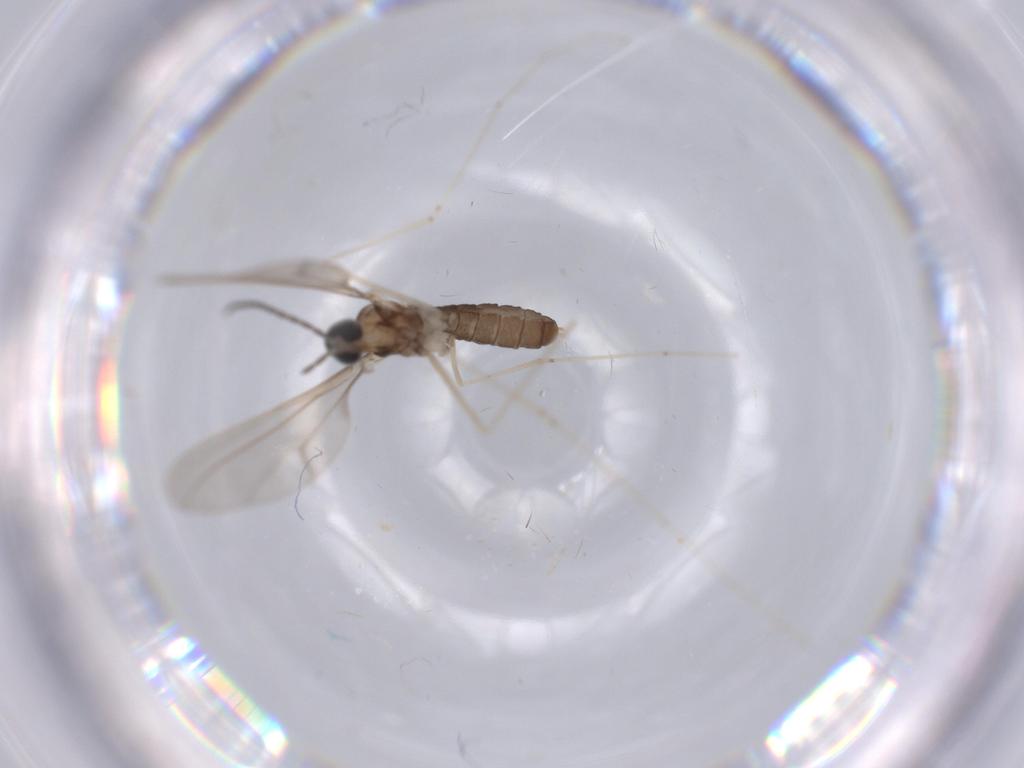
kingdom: Animalia
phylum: Arthropoda
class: Insecta
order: Diptera
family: Cecidomyiidae
